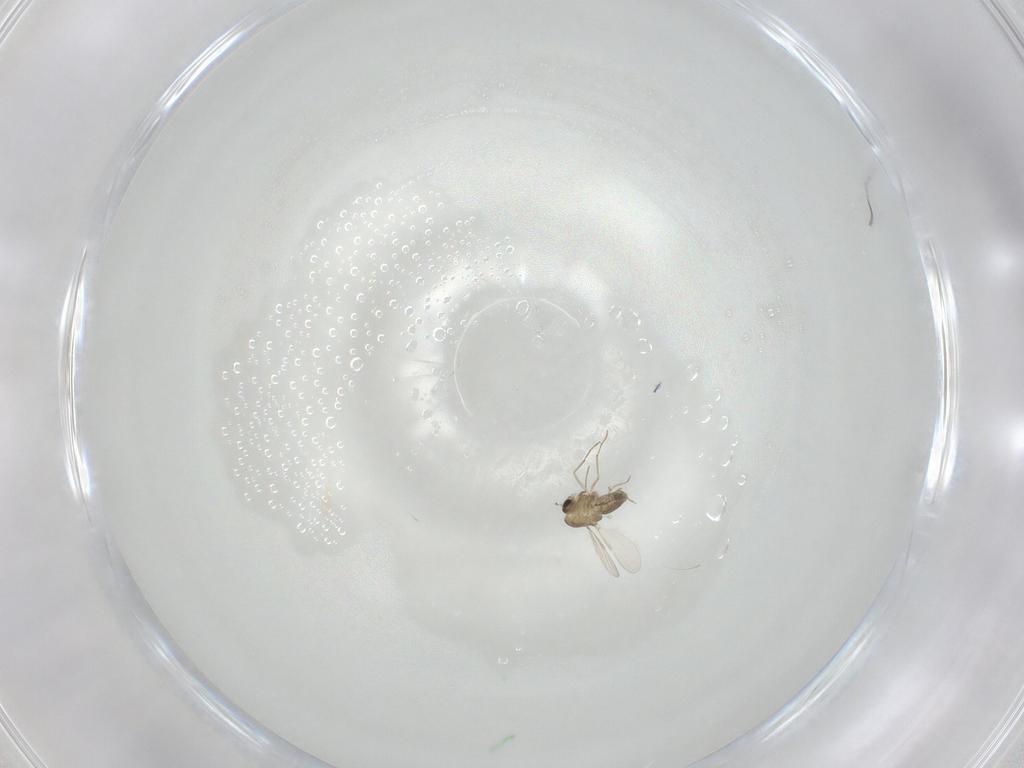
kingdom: Animalia
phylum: Arthropoda
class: Insecta
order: Diptera
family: Chironomidae
